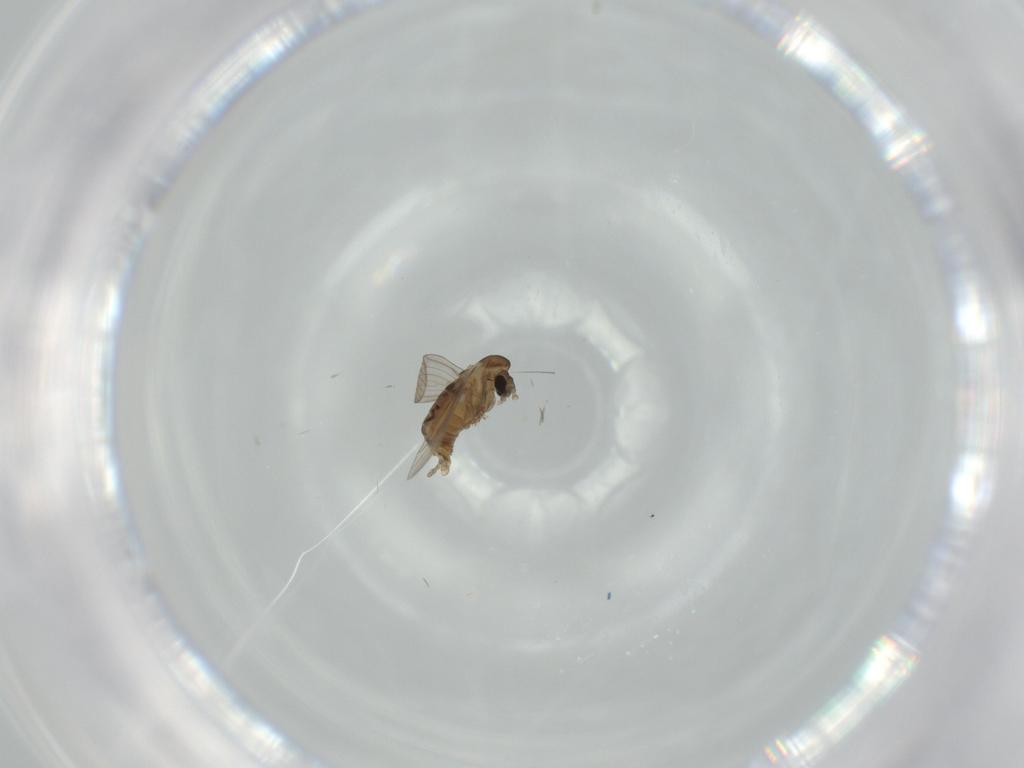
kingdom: Animalia
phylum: Arthropoda
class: Insecta
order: Diptera
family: Psychodidae
